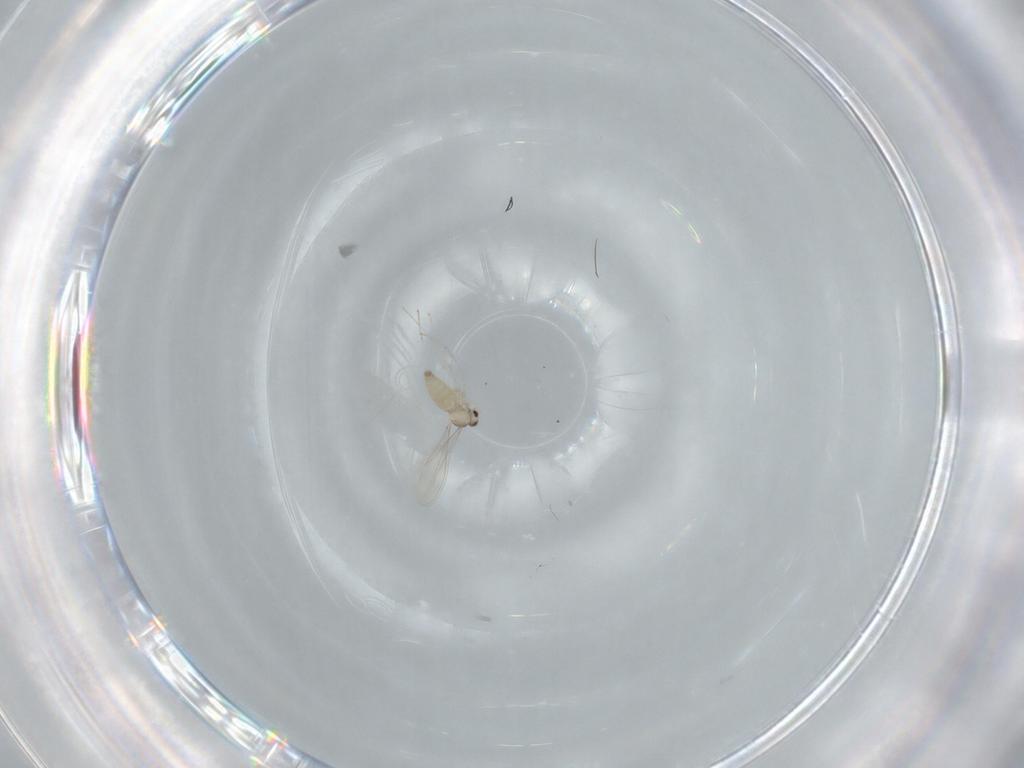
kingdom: Animalia
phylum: Arthropoda
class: Insecta
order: Diptera
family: Cecidomyiidae
